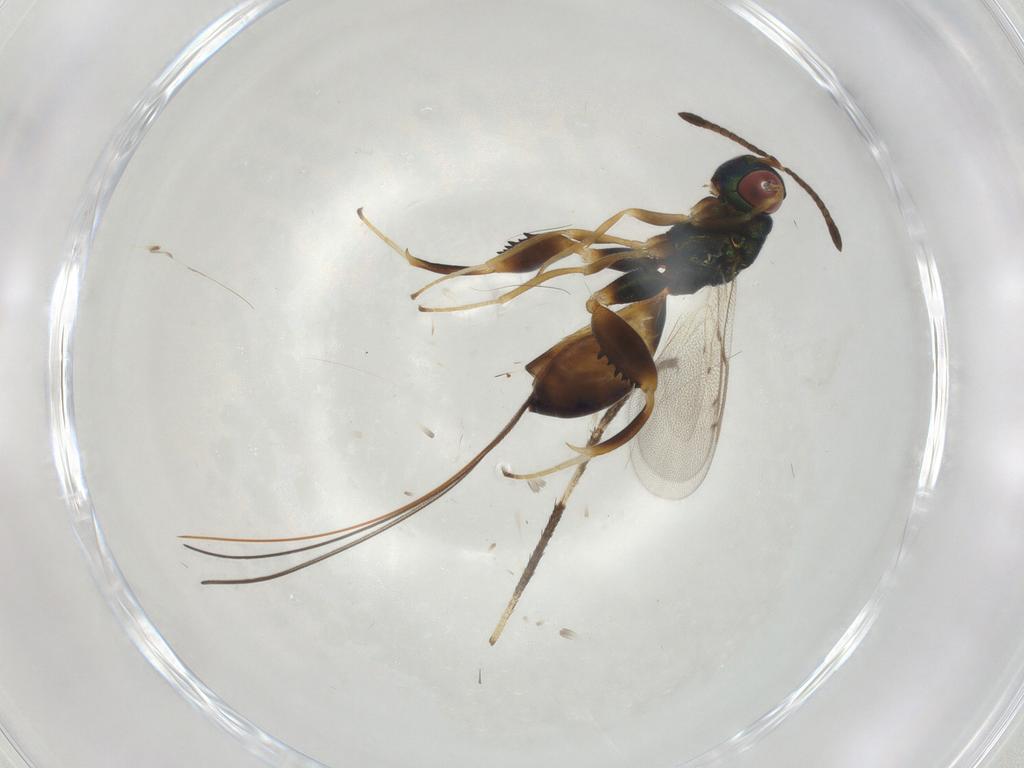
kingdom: Animalia
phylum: Arthropoda
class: Insecta
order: Hymenoptera
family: Torymidae
